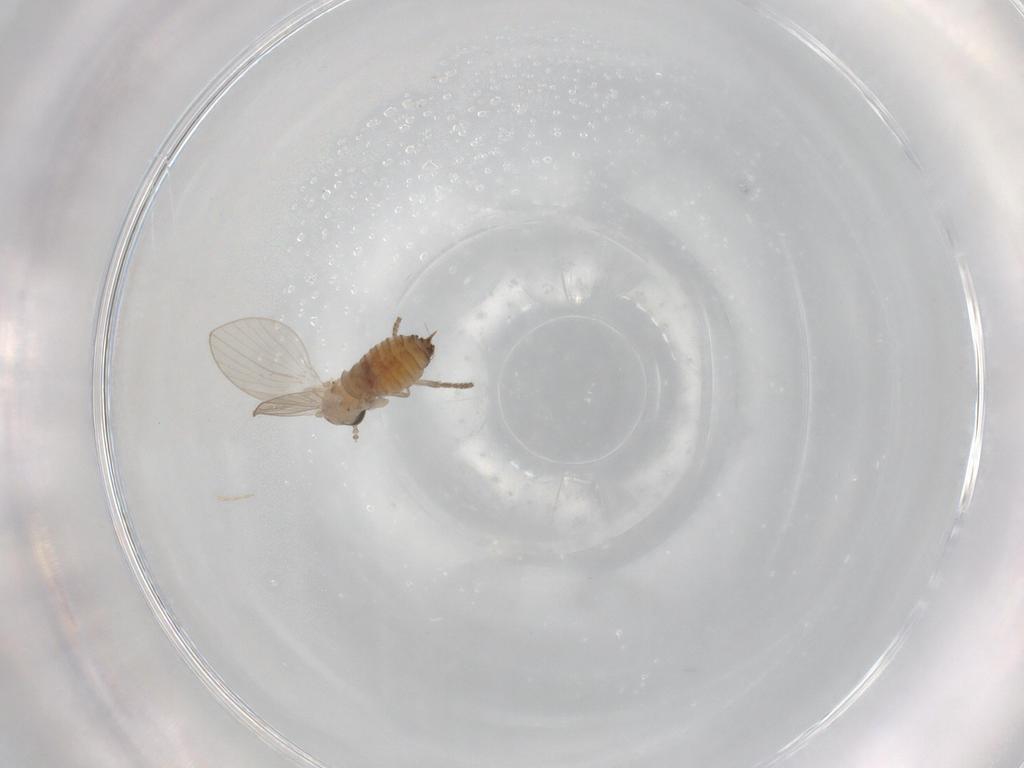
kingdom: Animalia
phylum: Arthropoda
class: Insecta
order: Diptera
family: Psychodidae
